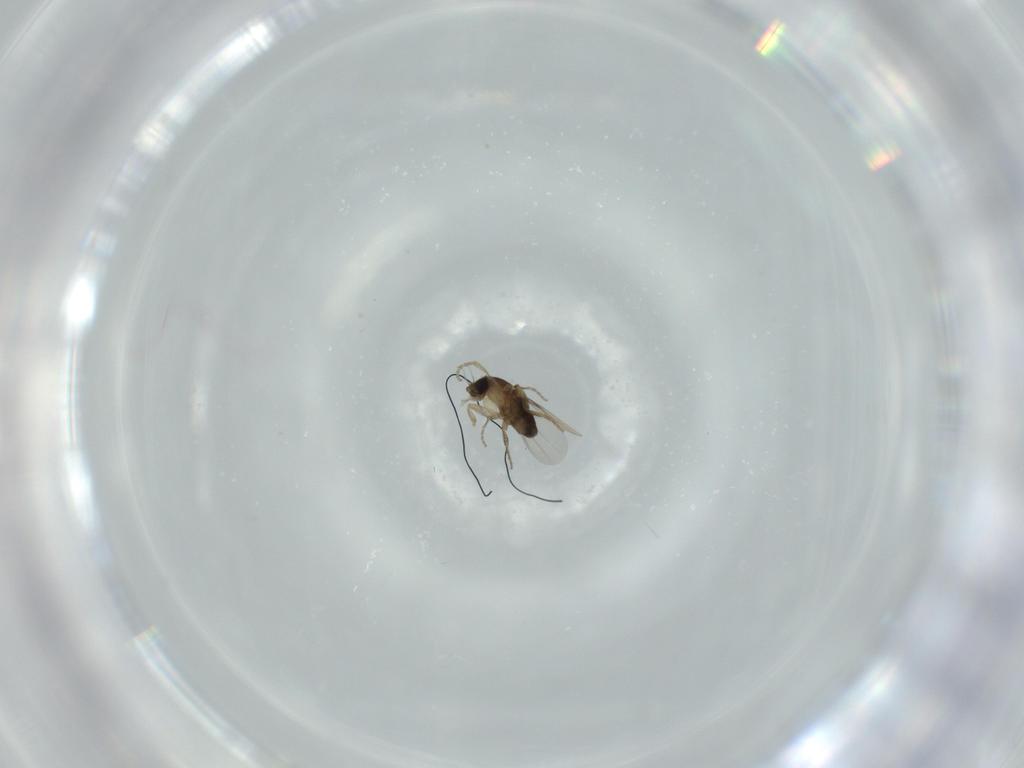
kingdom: Animalia
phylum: Arthropoda
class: Insecta
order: Diptera
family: Phoridae
